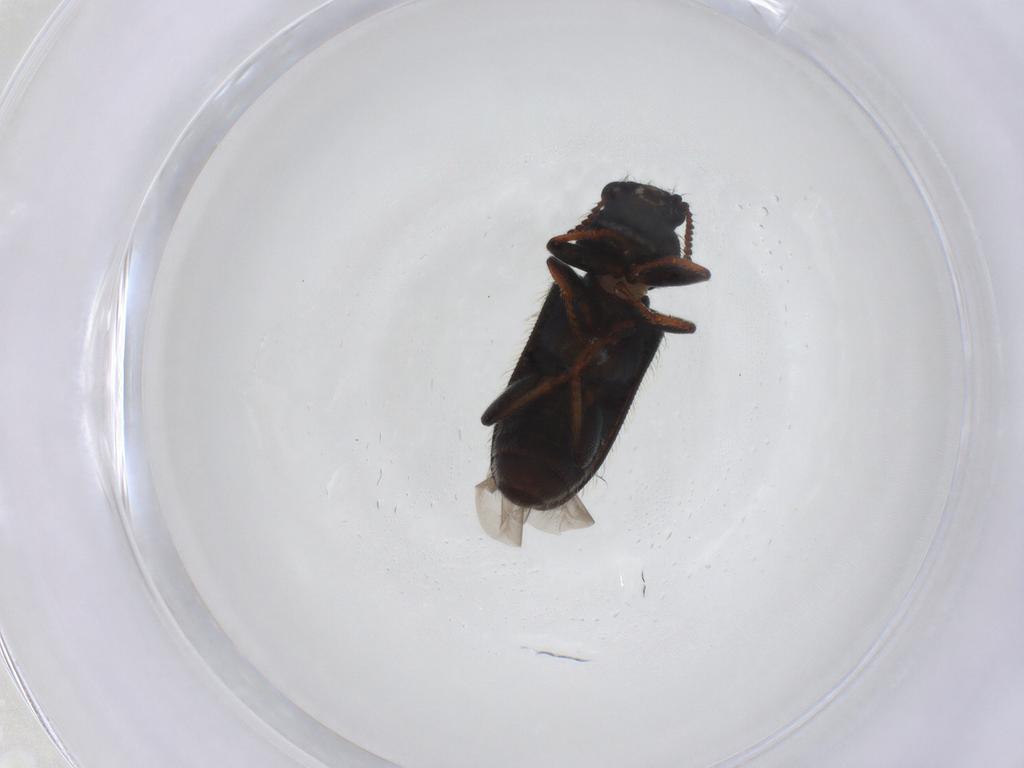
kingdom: Animalia
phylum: Arthropoda
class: Insecta
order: Coleoptera
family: Melyridae
